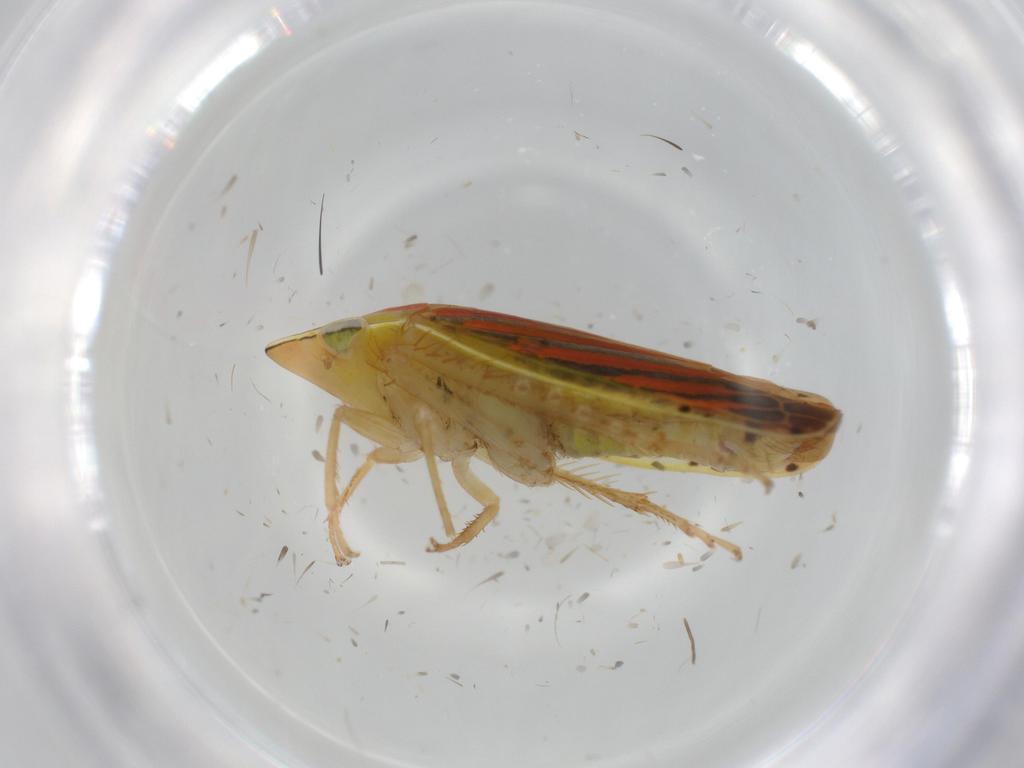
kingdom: Animalia
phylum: Arthropoda
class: Insecta
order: Hemiptera
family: Cicadellidae
